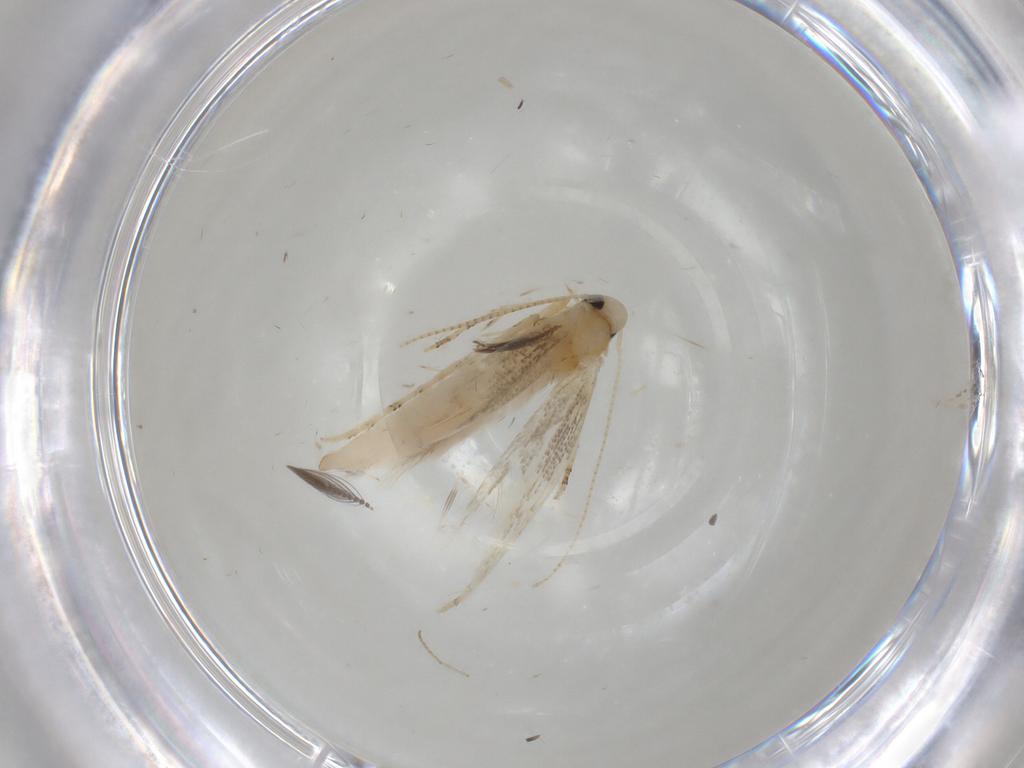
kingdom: Animalia
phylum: Arthropoda
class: Insecta
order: Lepidoptera
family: Gracillariidae
